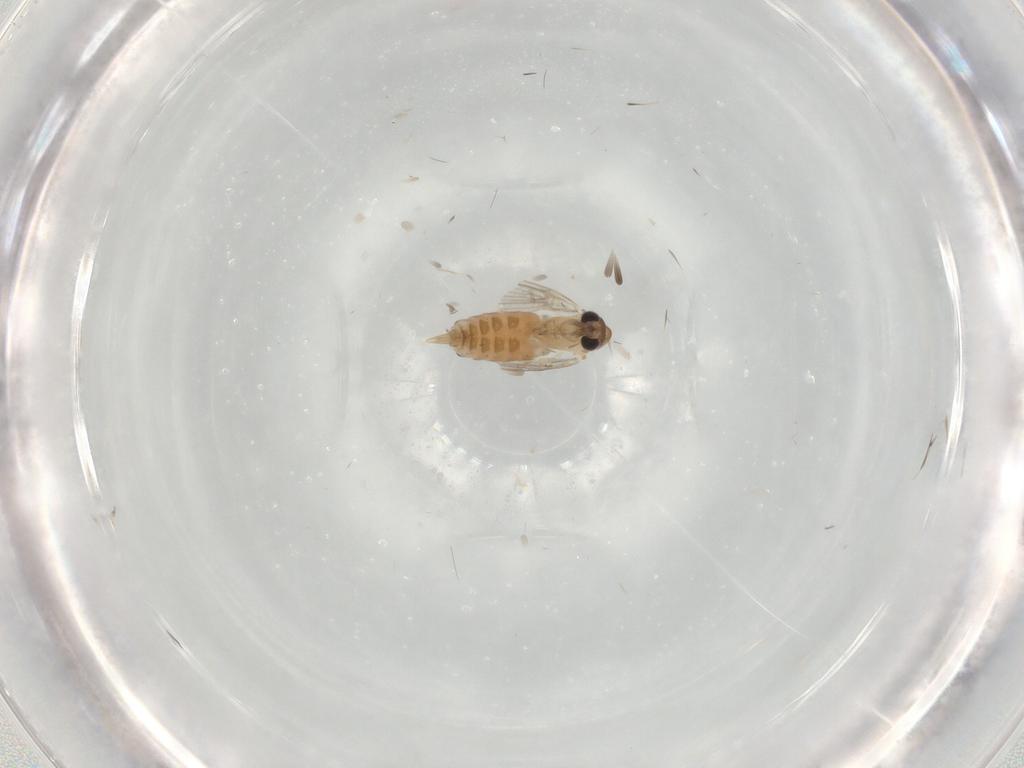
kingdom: Animalia
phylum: Arthropoda
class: Insecta
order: Diptera
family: Psychodidae
